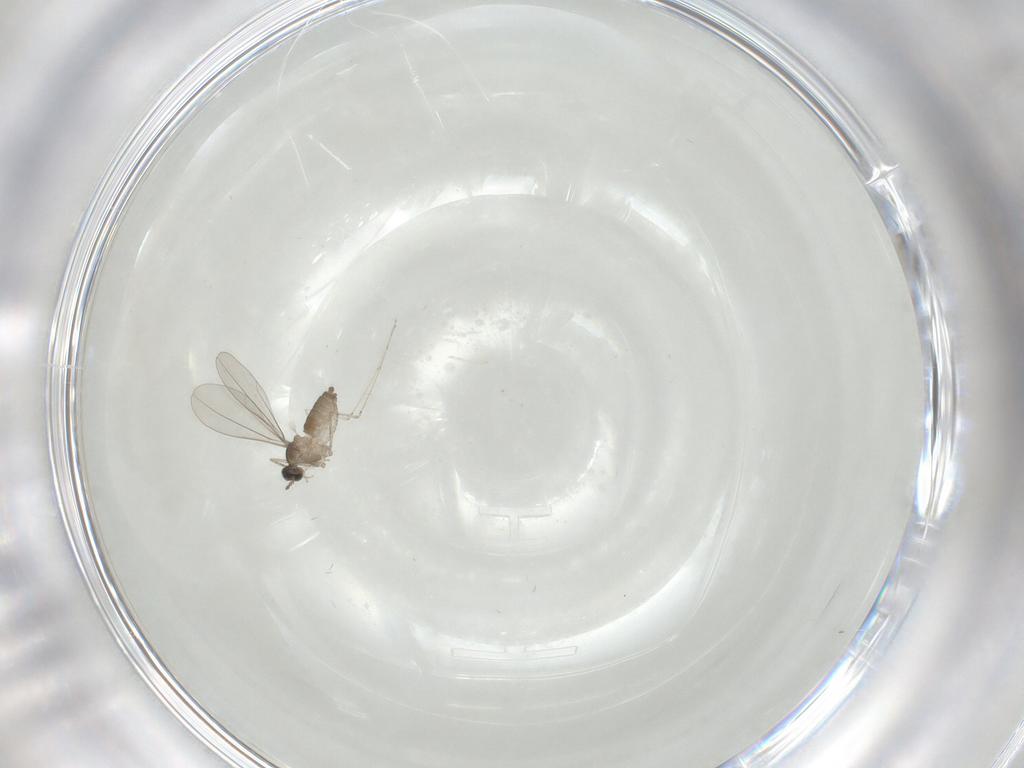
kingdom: Animalia
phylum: Arthropoda
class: Insecta
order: Diptera
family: Cecidomyiidae
